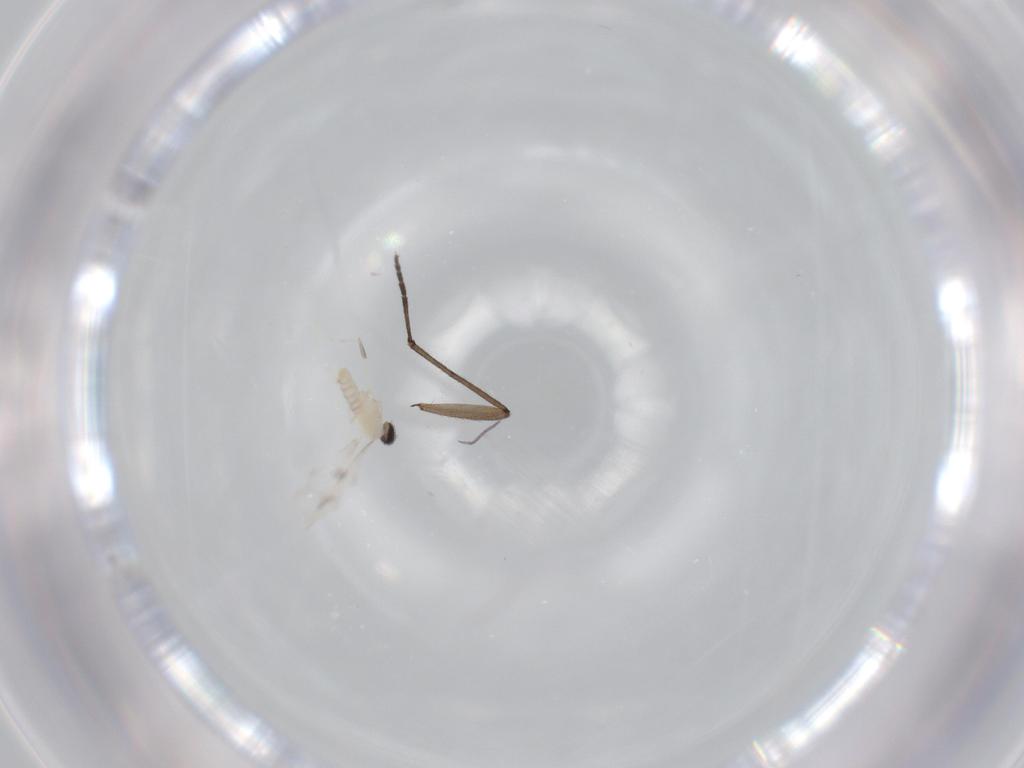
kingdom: Animalia
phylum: Arthropoda
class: Insecta
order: Diptera
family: Cecidomyiidae
